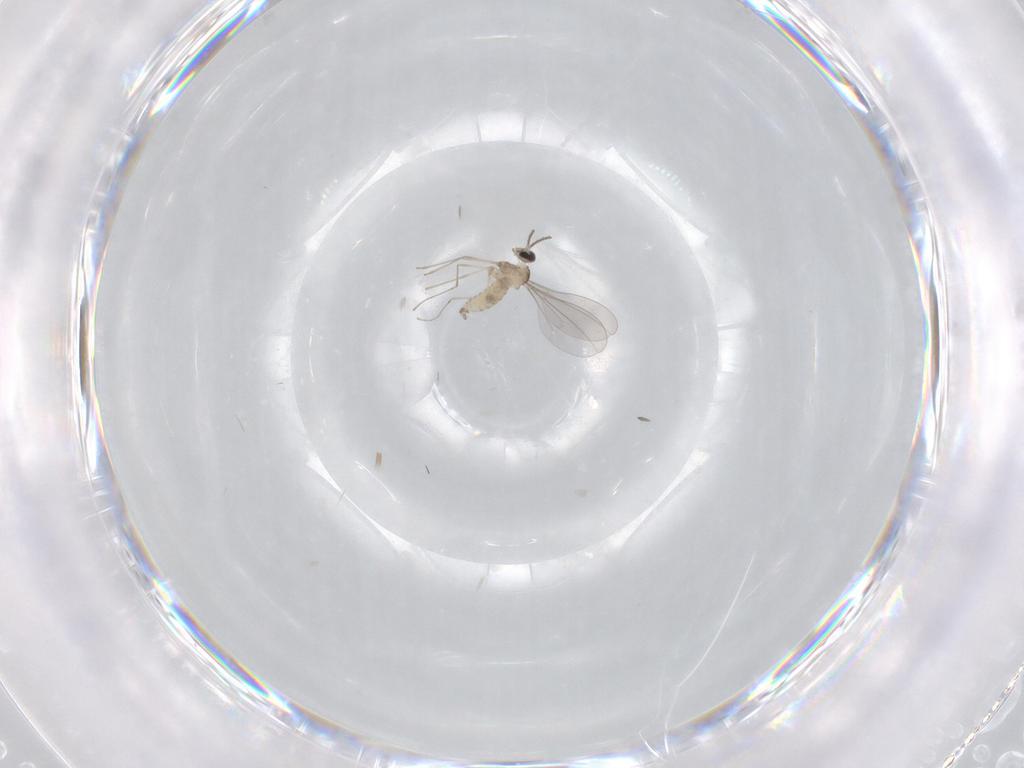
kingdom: Animalia
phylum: Arthropoda
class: Insecta
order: Diptera
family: Cecidomyiidae
